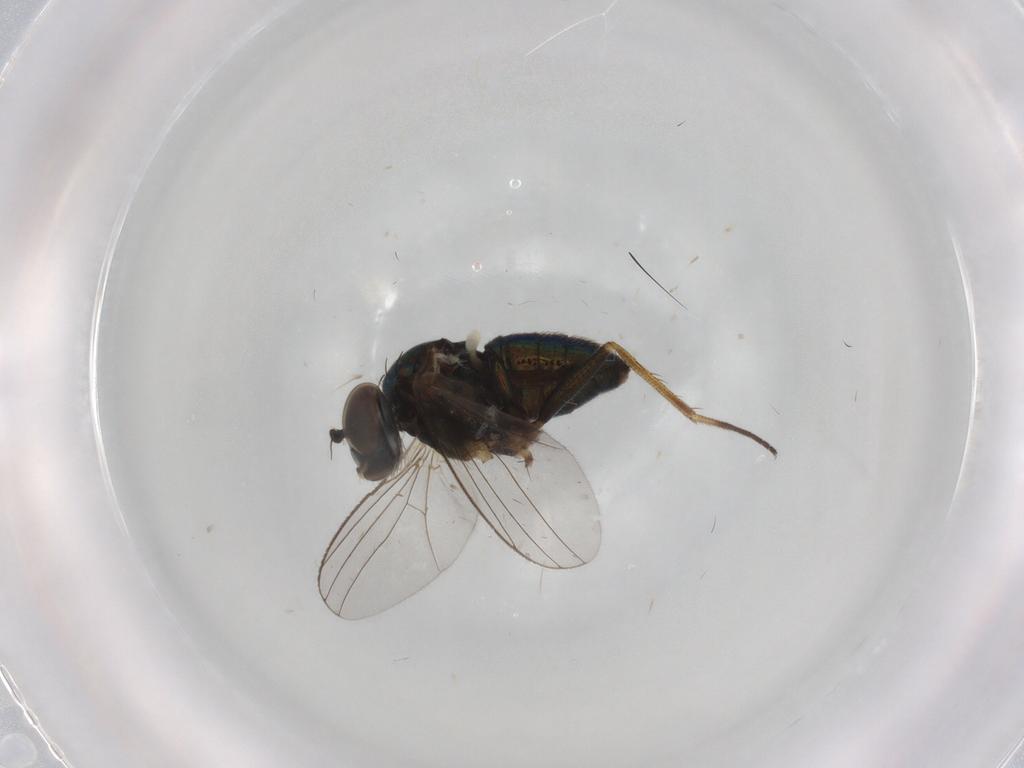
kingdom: Animalia
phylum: Arthropoda
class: Insecta
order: Diptera
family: Dolichopodidae
